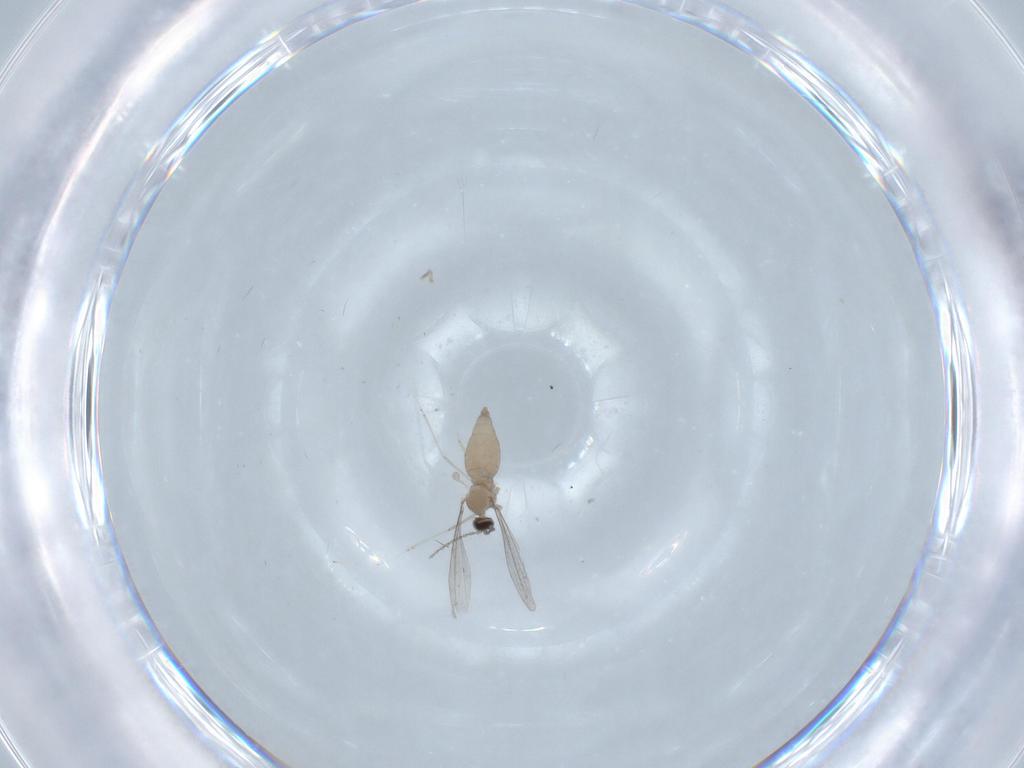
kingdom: Animalia
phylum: Arthropoda
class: Insecta
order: Diptera
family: Cecidomyiidae
